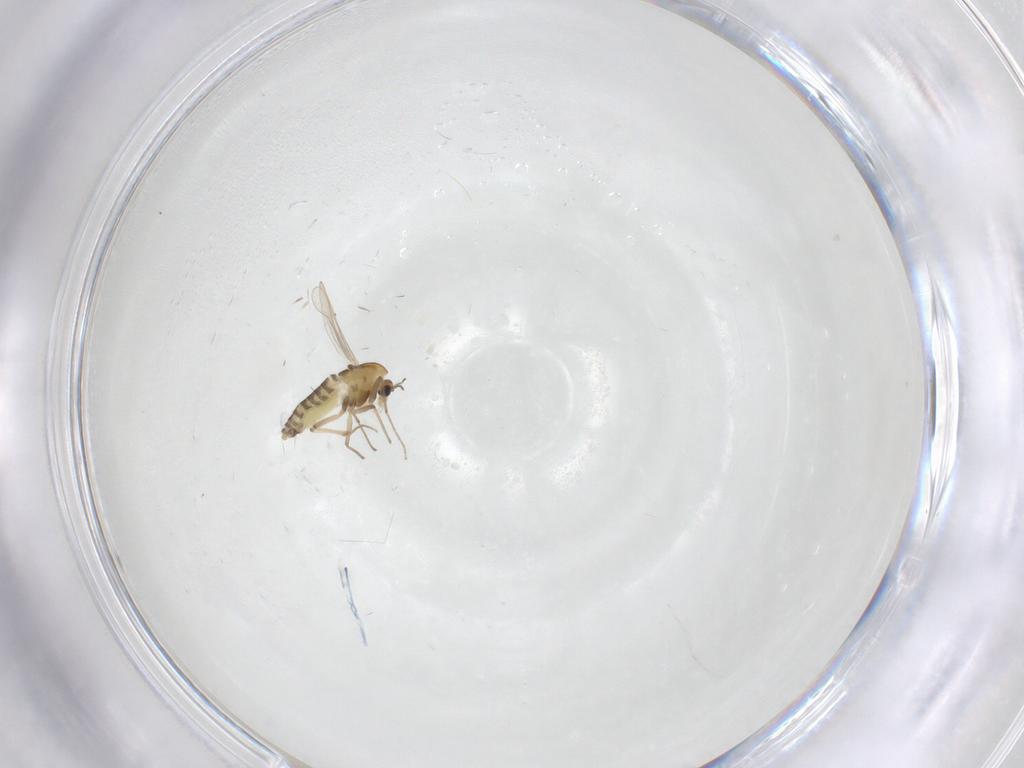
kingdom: Animalia
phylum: Arthropoda
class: Insecta
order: Diptera
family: Chironomidae
